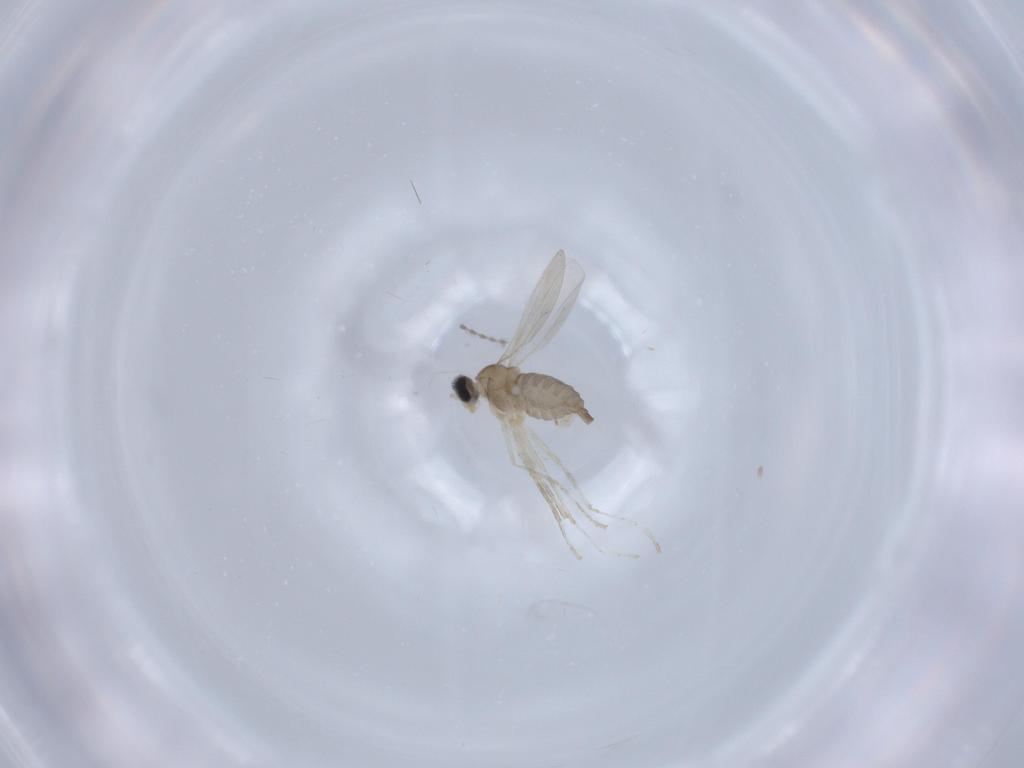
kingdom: Animalia
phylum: Arthropoda
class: Insecta
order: Diptera
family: Cecidomyiidae
